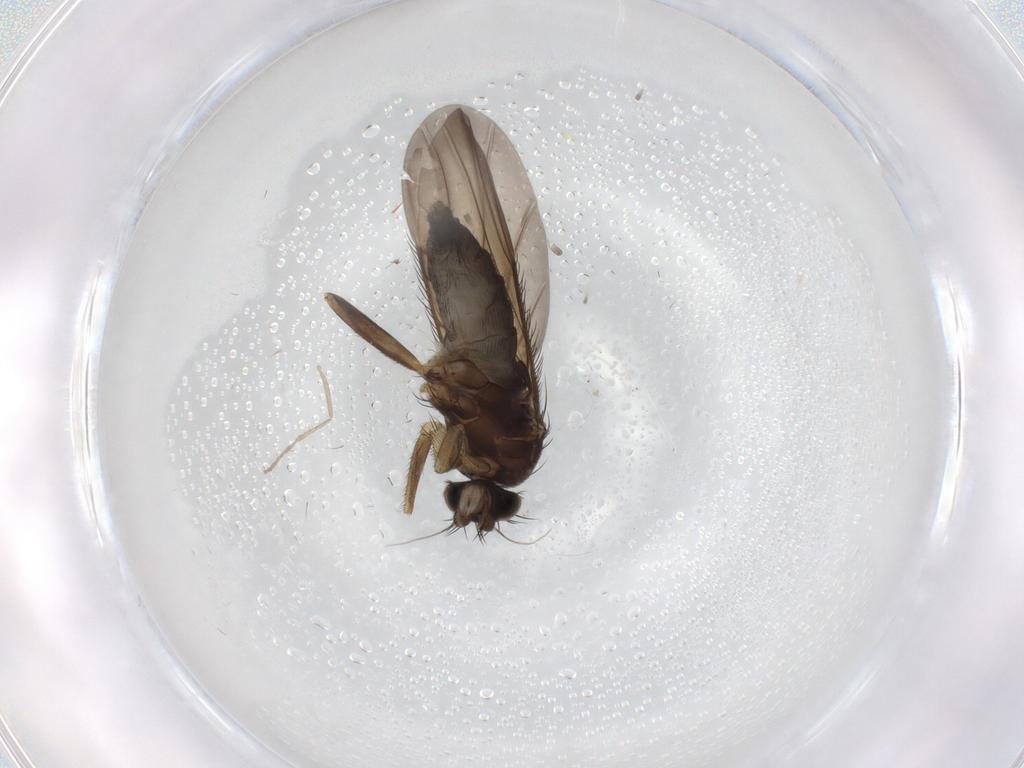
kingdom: Animalia
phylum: Arthropoda
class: Insecta
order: Diptera
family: Phoridae
